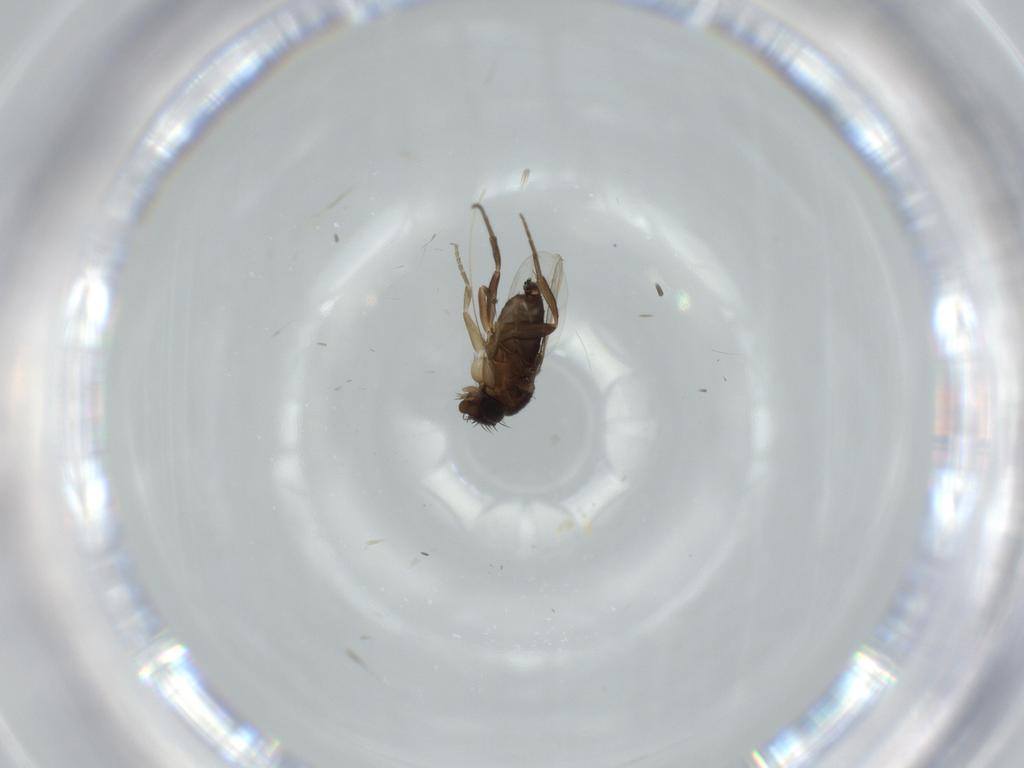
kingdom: Animalia
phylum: Arthropoda
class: Insecta
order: Diptera
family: Phoridae
